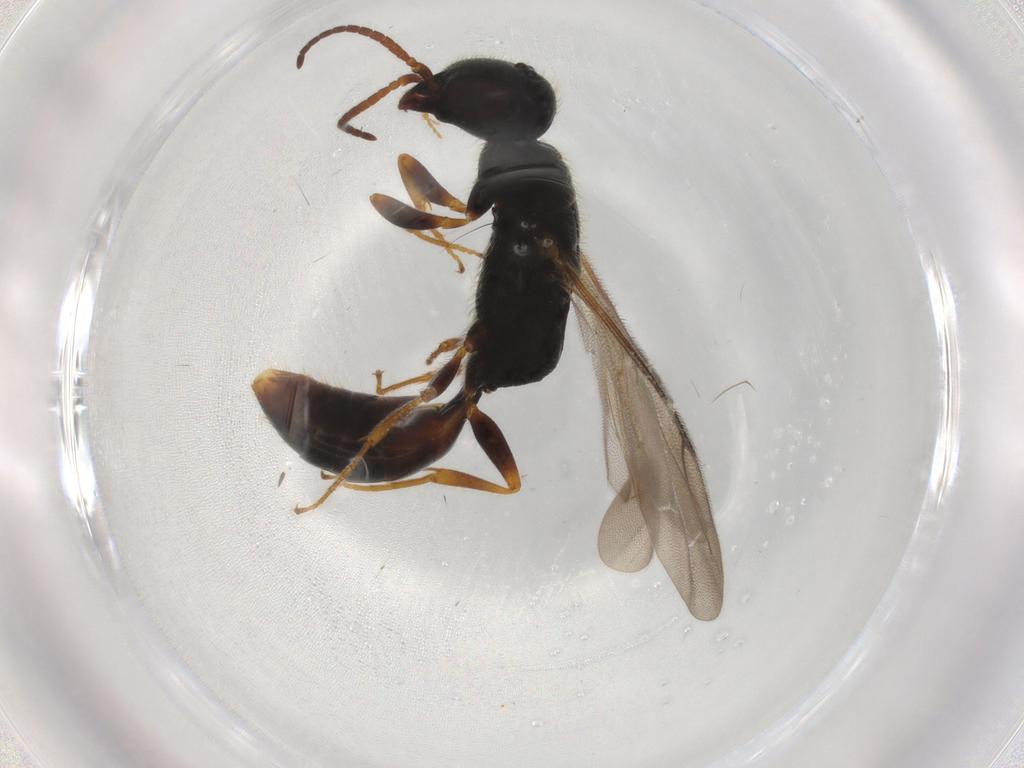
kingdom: Animalia
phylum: Arthropoda
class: Insecta
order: Hymenoptera
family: Bethylidae
